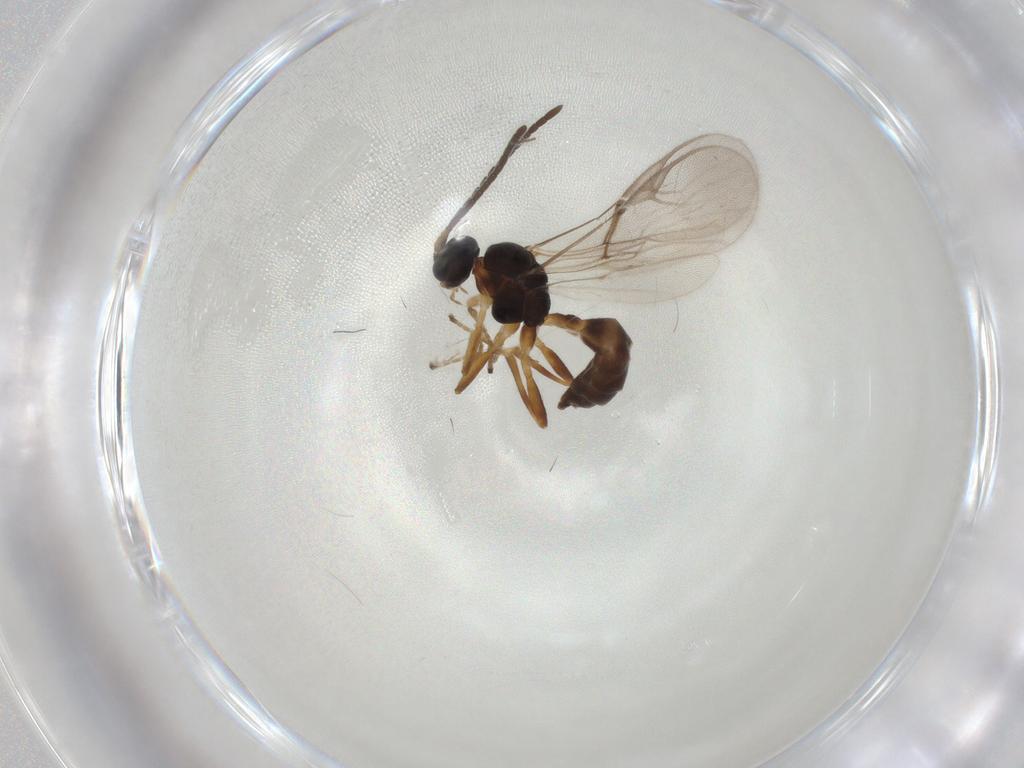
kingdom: Animalia
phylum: Arthropoda
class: Insecta
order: Hymenoptera
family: Braconidae
